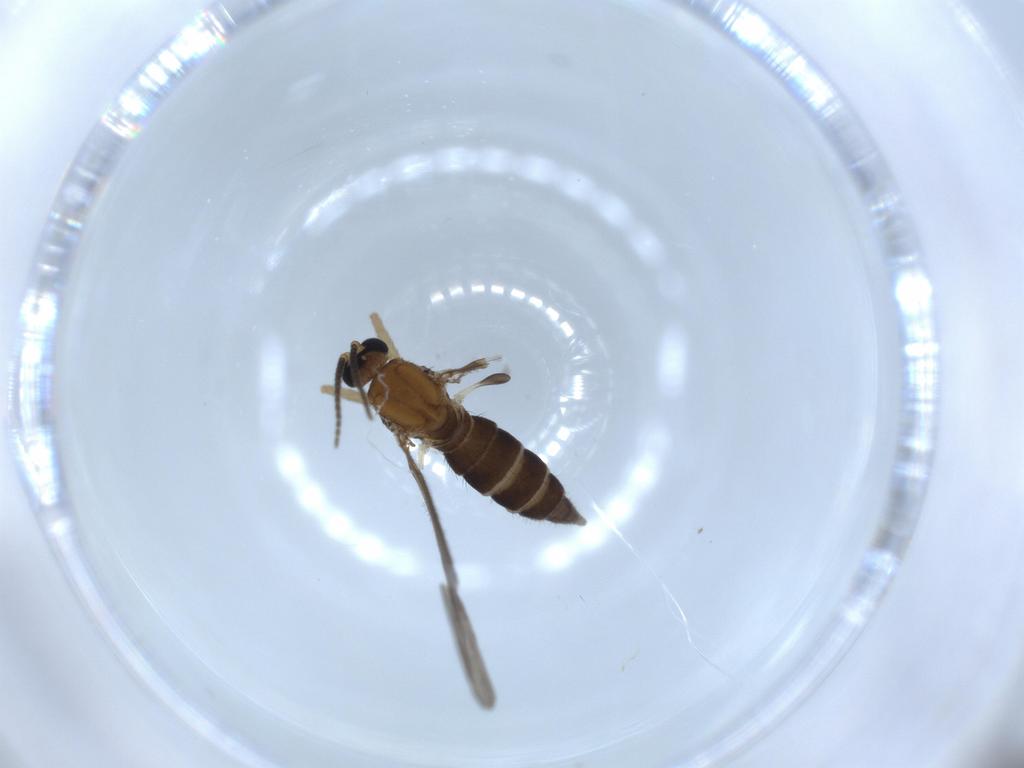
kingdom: Animalia
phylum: Arthropoda
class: Insecta
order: Diptera
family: Sciaridae
